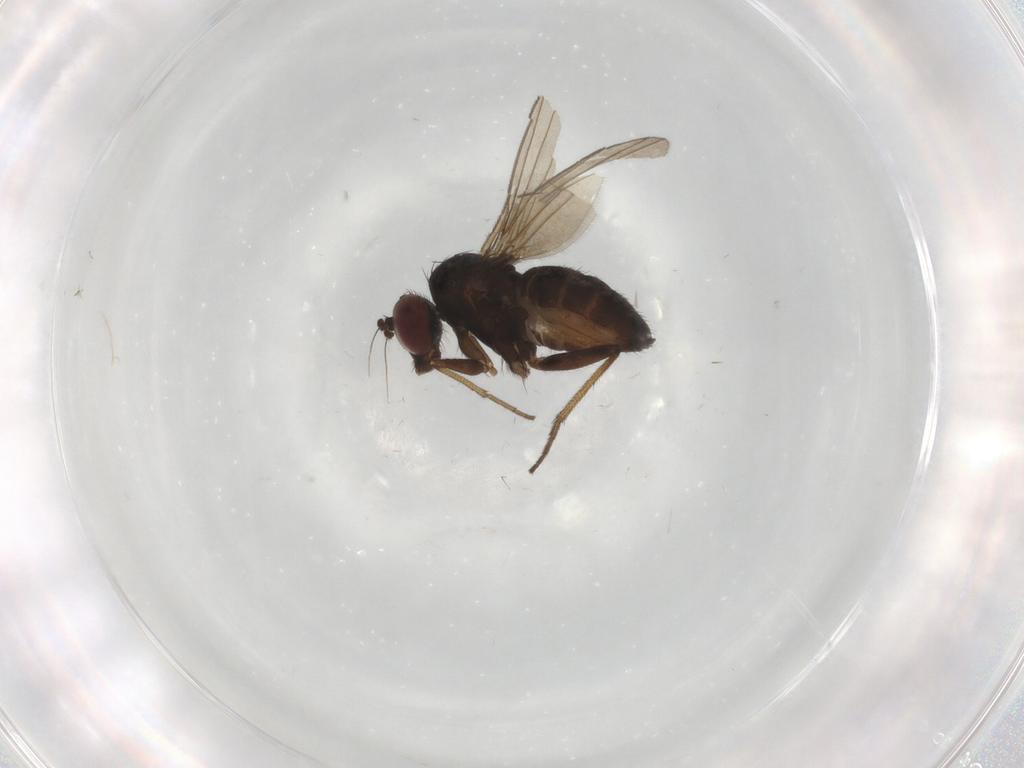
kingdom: Animalia
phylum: Arthropoda
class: Insecta
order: Diptera
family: Dolichopodidae
